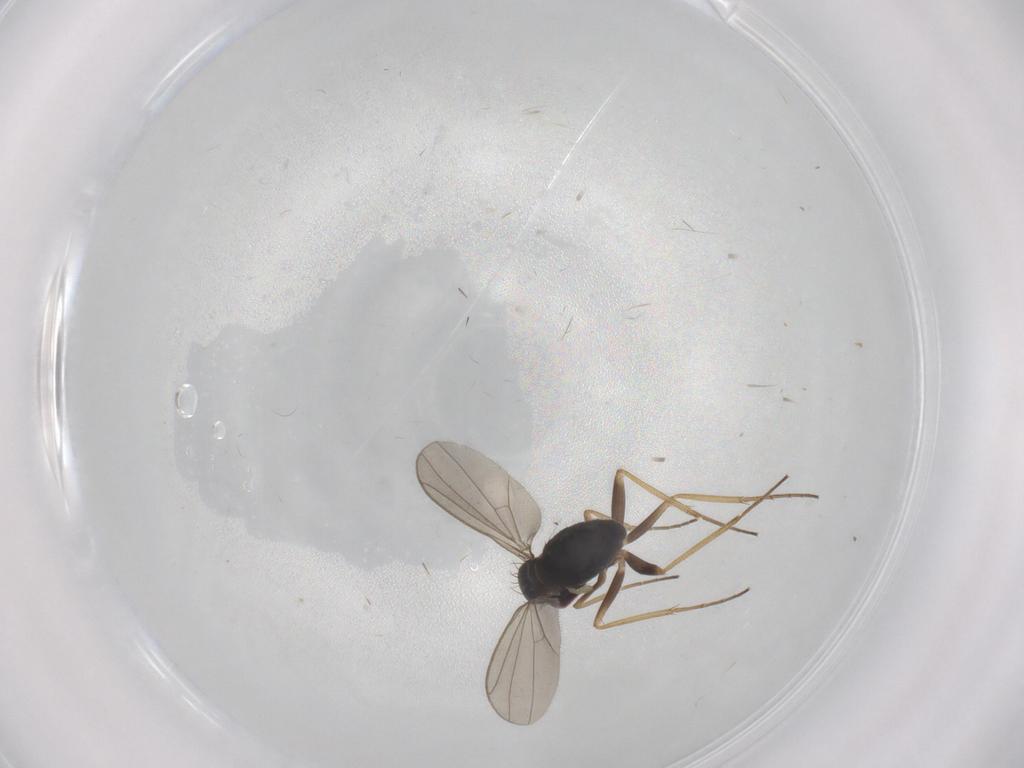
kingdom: Animalia
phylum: Arthropoda
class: Insecta
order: Diptera
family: Dolichopodidae
